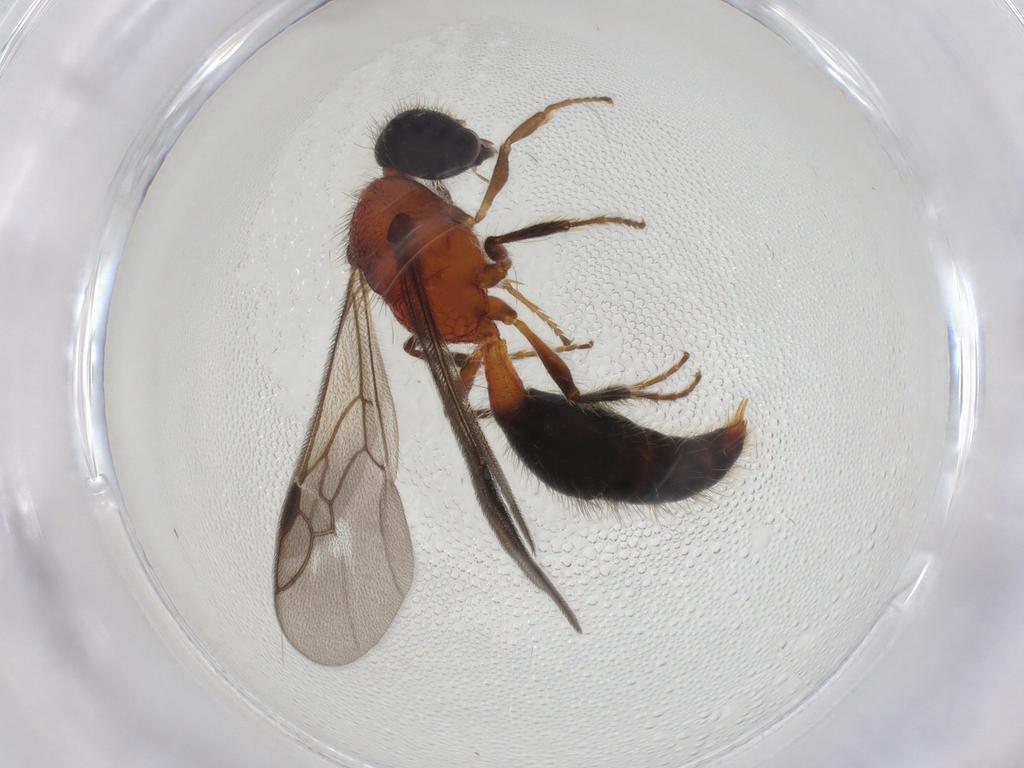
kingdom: Animalia
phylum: Arthropoda
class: Insecta
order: Hymenoptera
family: Mutillidae
